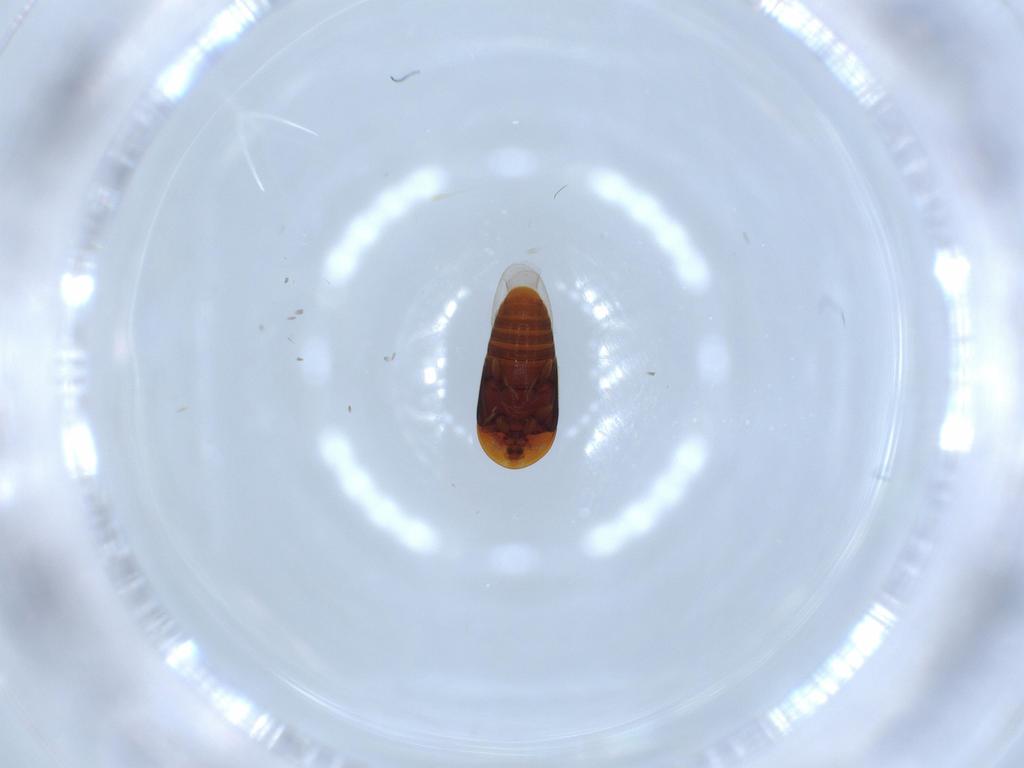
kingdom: Animalia
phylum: Arthropoda
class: Insecta
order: Coleoptera
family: Corylophidae
